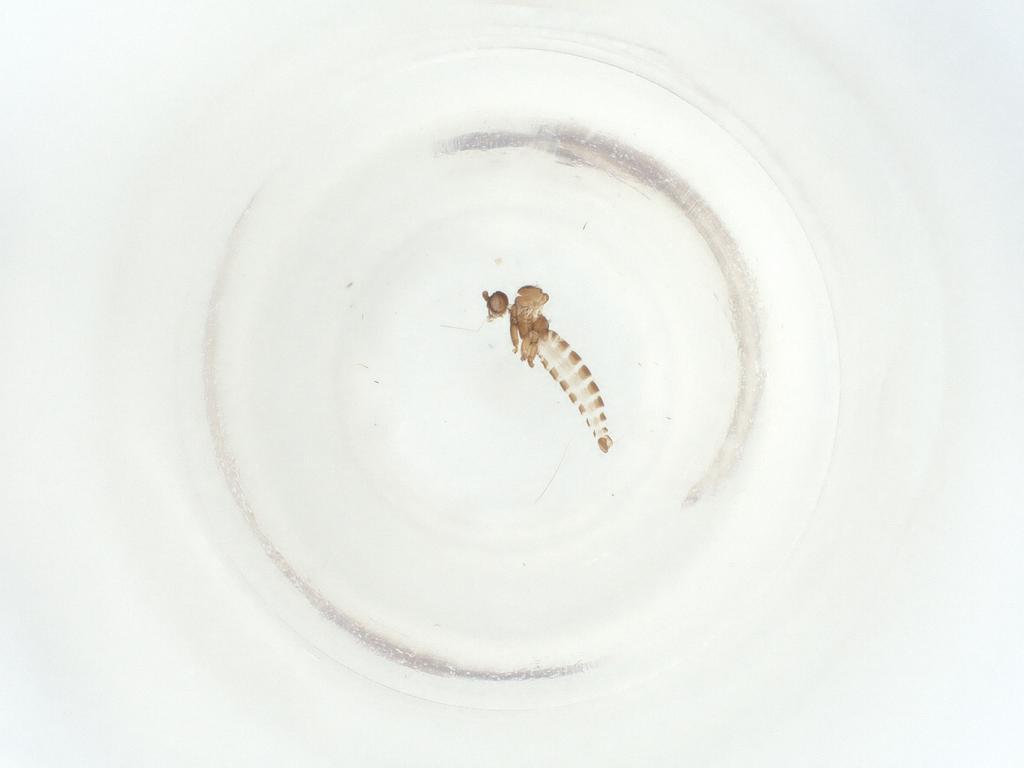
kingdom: Animalia
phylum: Arthropoda
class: Insecta
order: Diptera
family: Sciaridae
